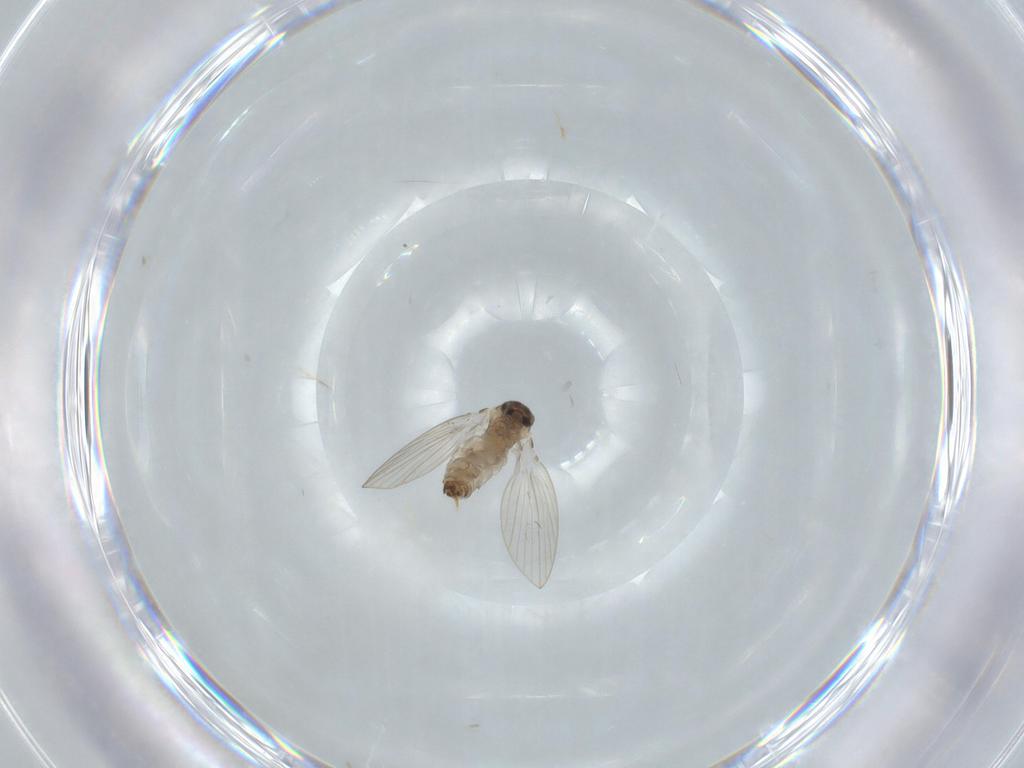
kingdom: Animalia
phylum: Arthropoda
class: Insecta
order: Diptera
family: Psychodidae
